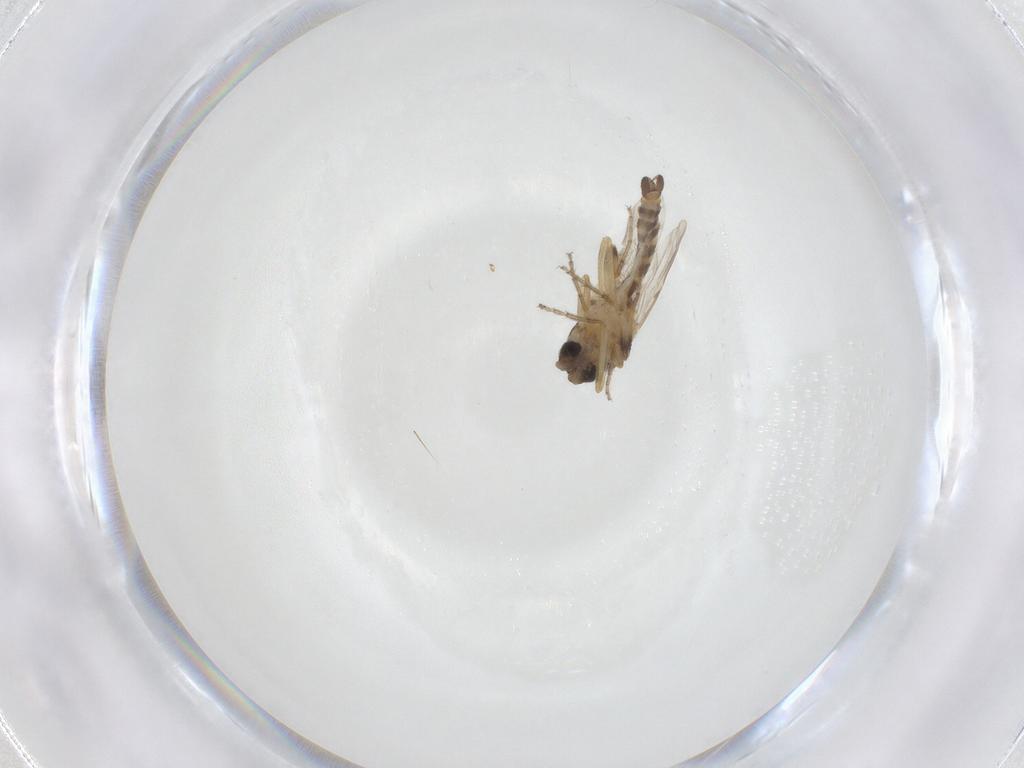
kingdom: Animalia
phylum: Arthropoda
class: Insecta
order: Diptera
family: Ceratopogonidae
